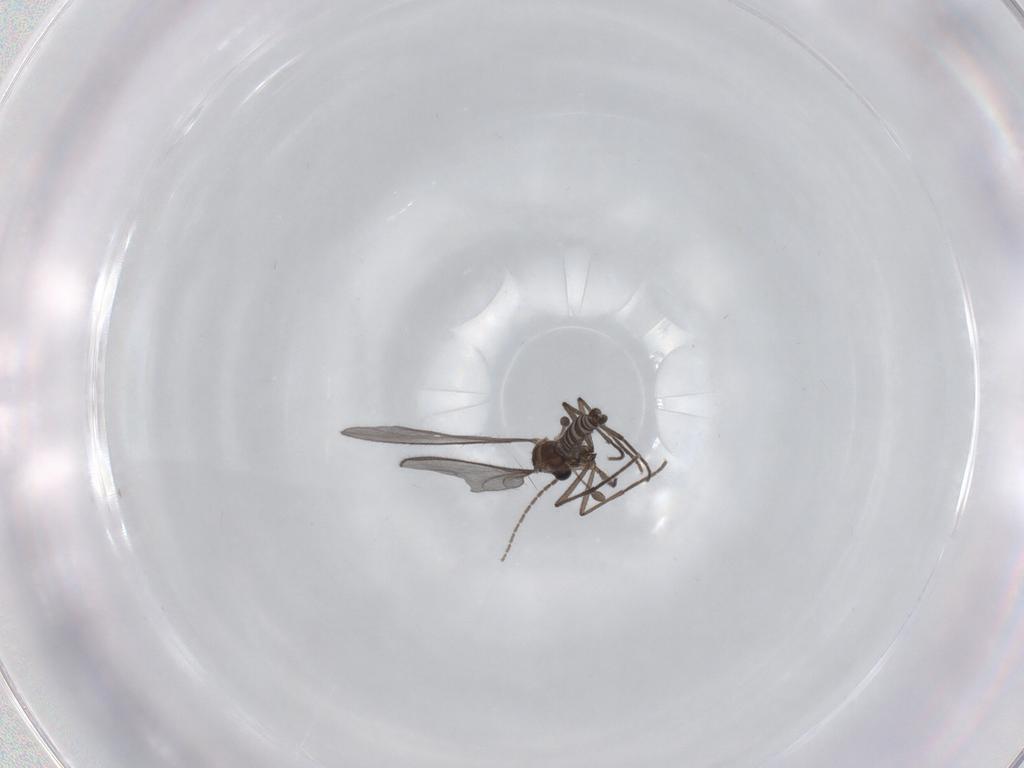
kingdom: Animalia
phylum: Arthropoda
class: Insecta
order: Diptera
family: Sciaridae
